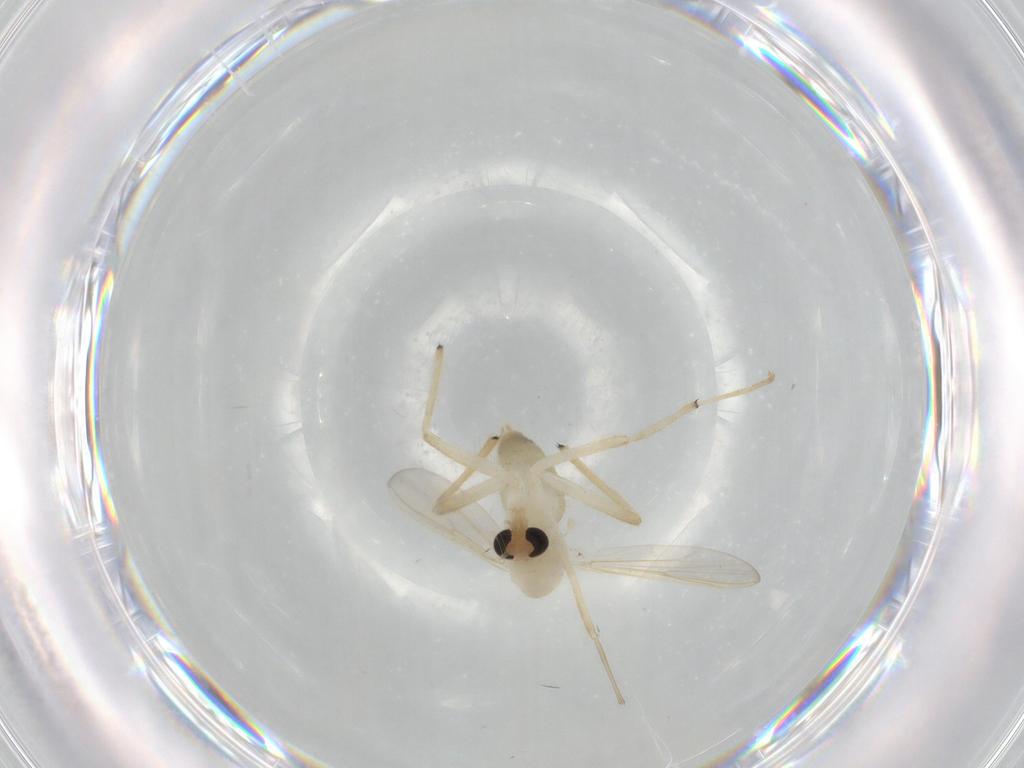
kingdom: Animalia
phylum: Arthropoda
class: Insecta
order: Diptera
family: Chironomidae
